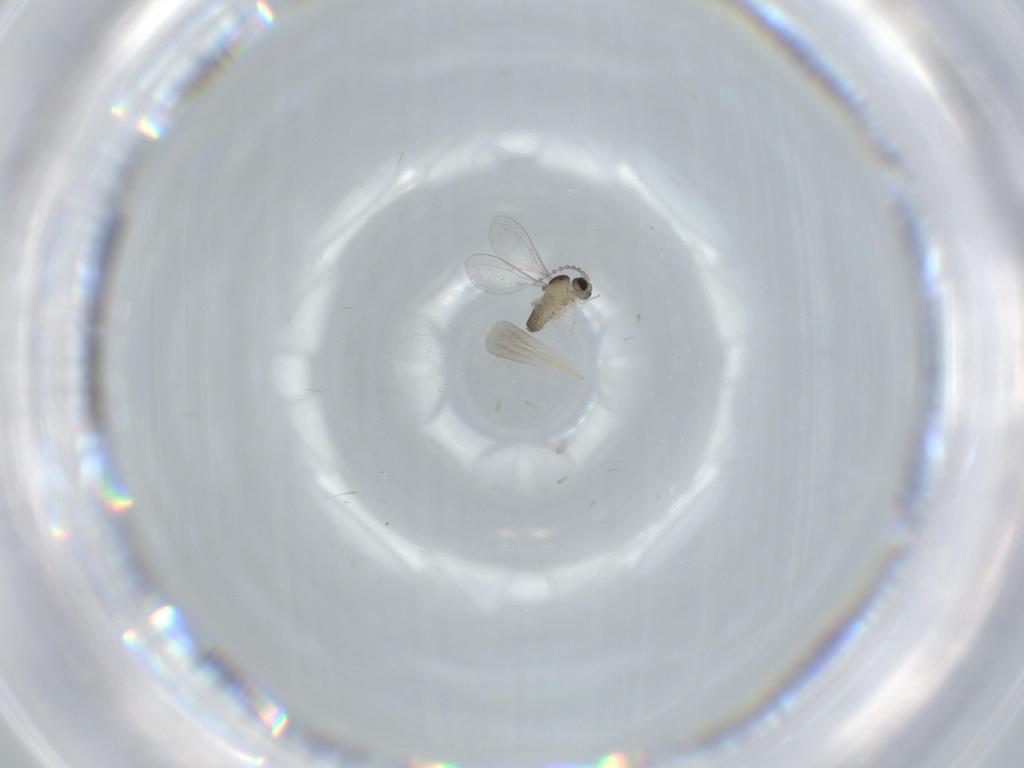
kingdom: Animalia
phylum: Arthropoda
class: Insecta
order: Diptera
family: Cecidomyiidae
